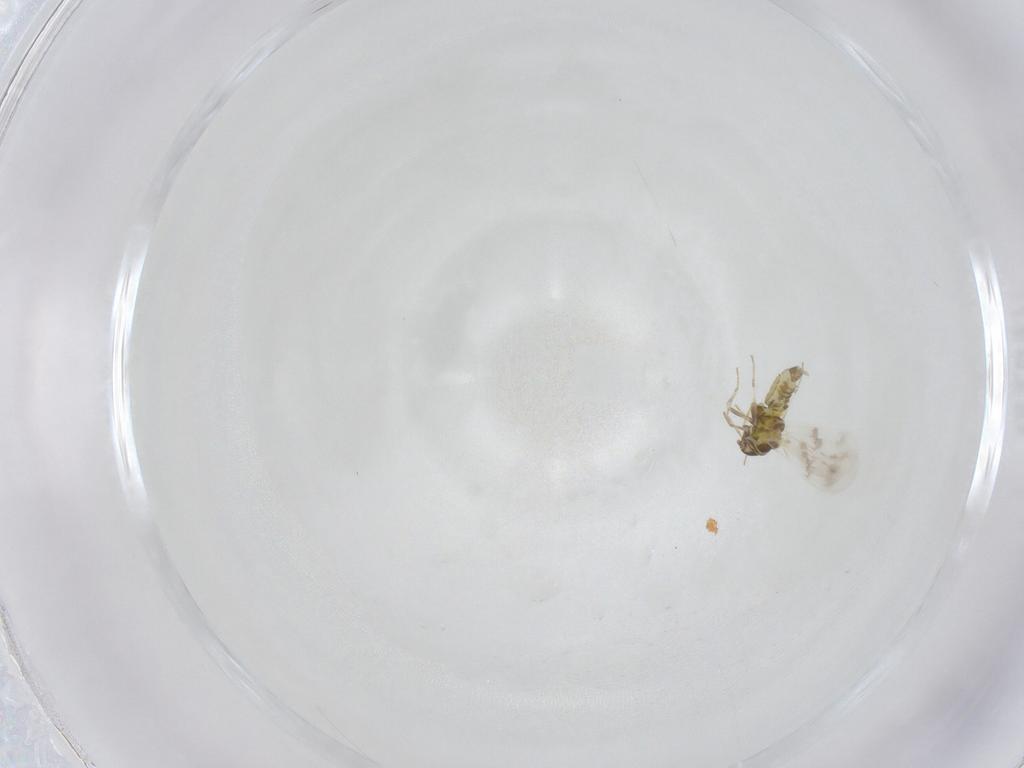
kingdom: Animalia
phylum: Arthropoda
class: Insecta
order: Hemiptera
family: Aleyrodidae
